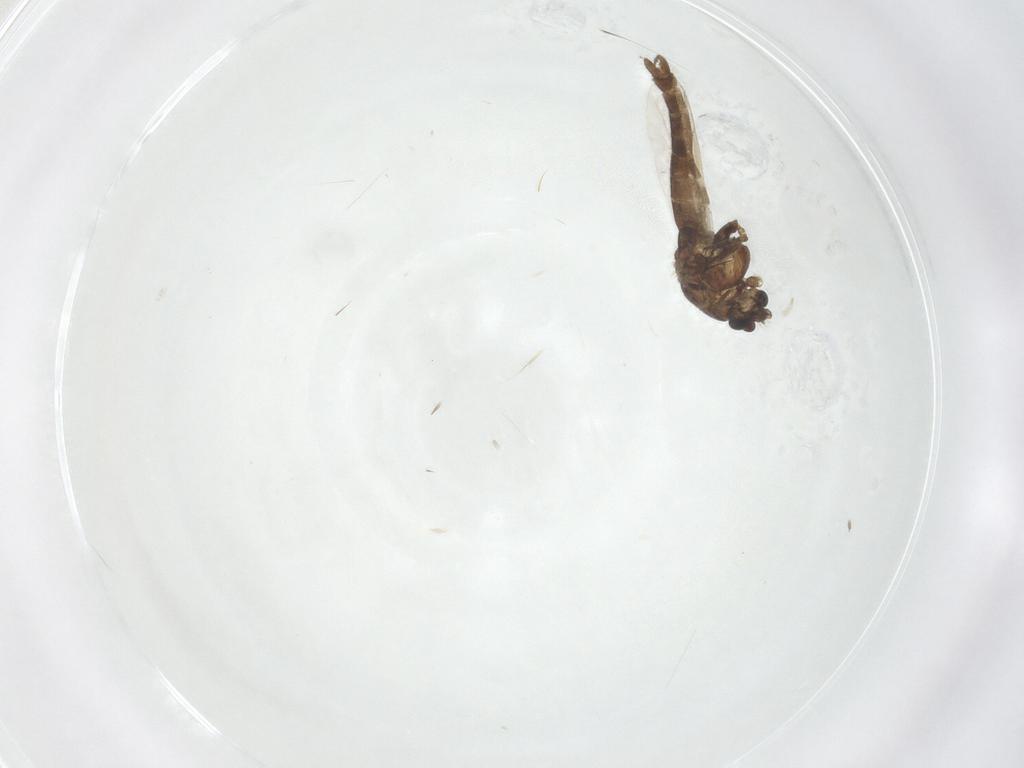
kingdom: Animalia
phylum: Arthropoda
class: Insecta
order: Diptera
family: Chironomidae
